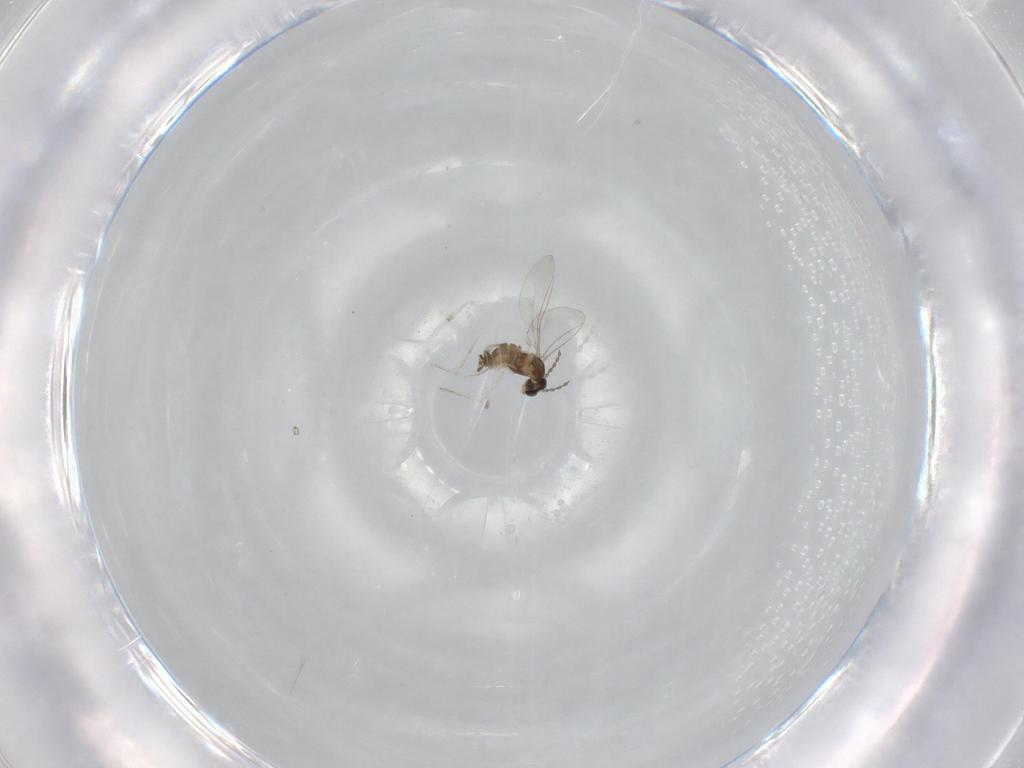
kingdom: Animalia
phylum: Arthropoda
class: Insecta
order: Diptera
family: Cecidomyiidae
